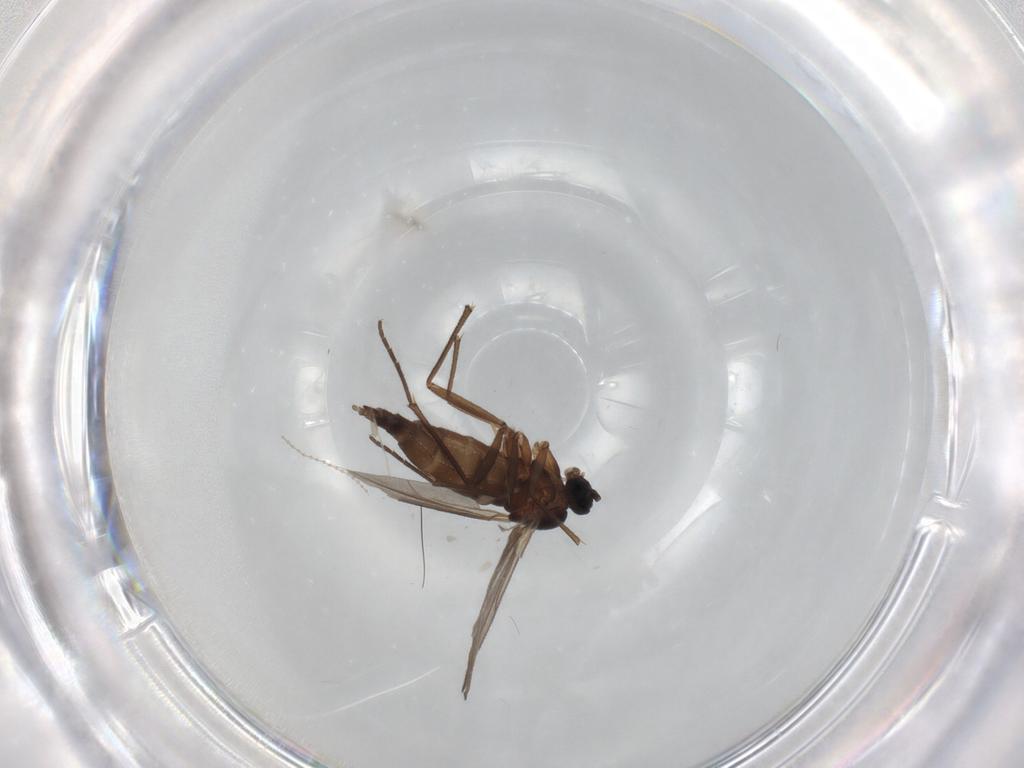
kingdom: Animalia
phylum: Arthropoda
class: Insecta
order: Diptera
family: Sciaridae
